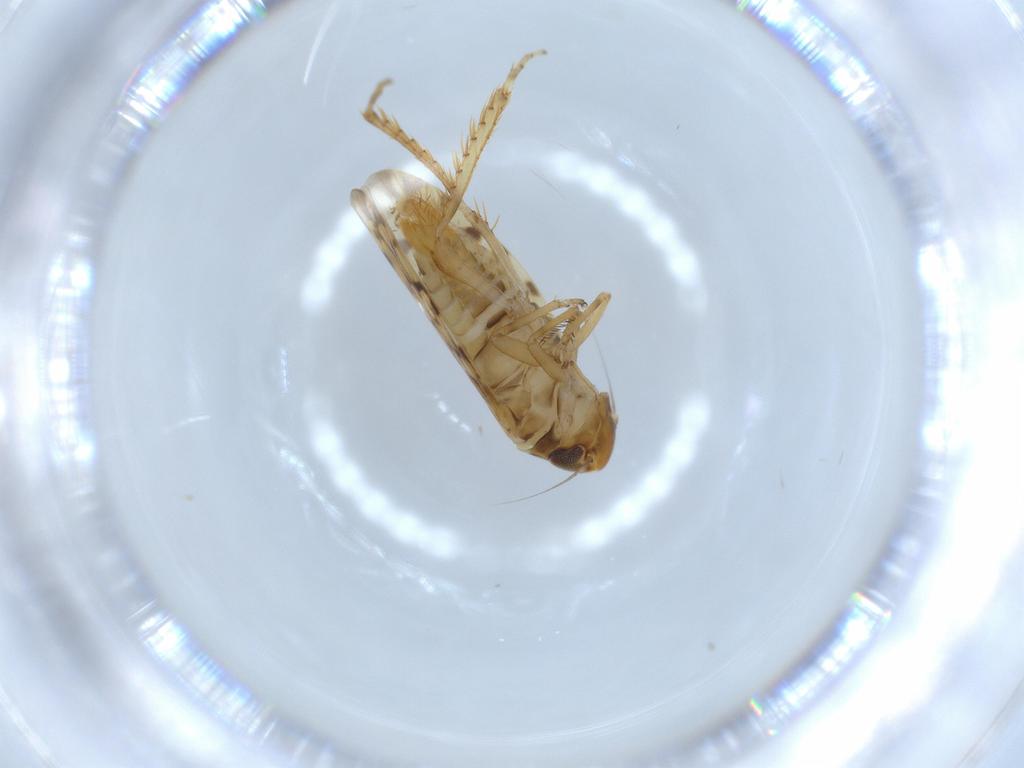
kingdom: Animalia
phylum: Arthropoda
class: Insecta
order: Hemiptera
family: Cicadellidae
